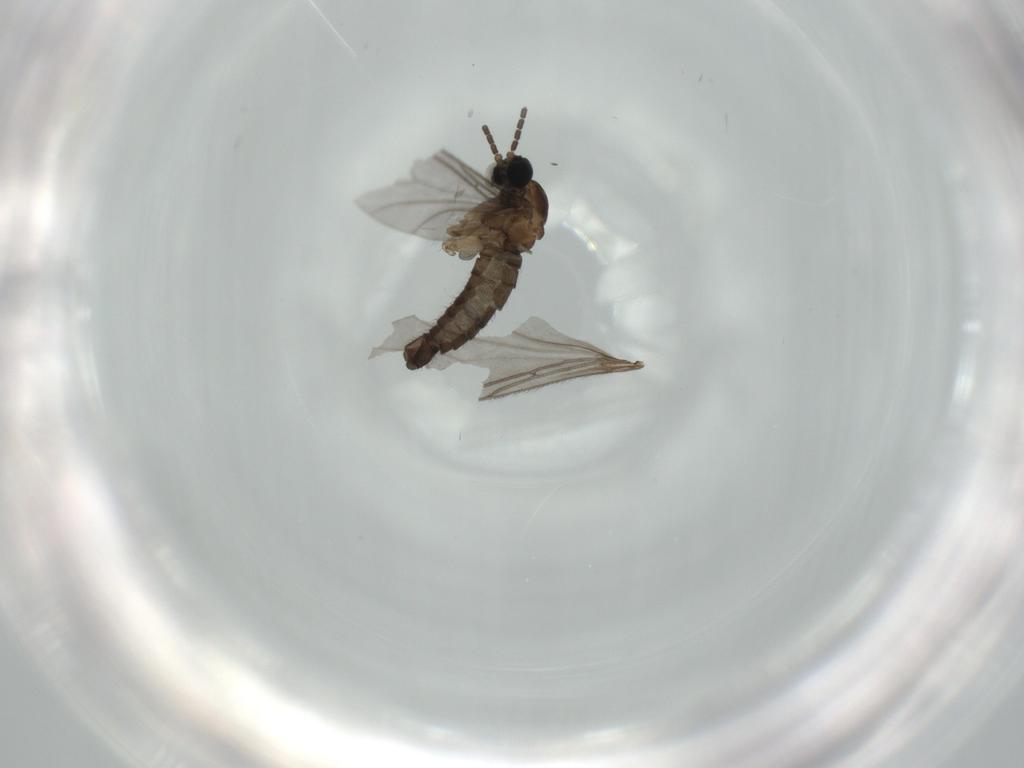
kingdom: Animalia
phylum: Arthropoda
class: Insecta
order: Diptera
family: Sciaridae
